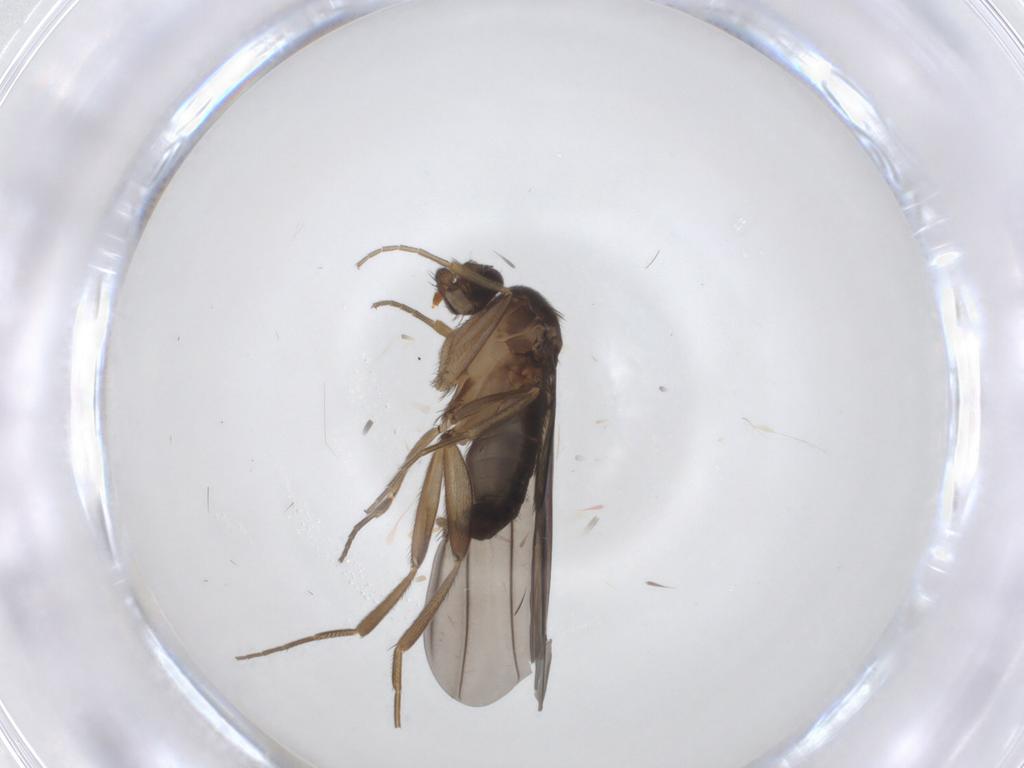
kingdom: Animalia
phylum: Arthropoda
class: Insecta
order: Diptera
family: Phoridae
